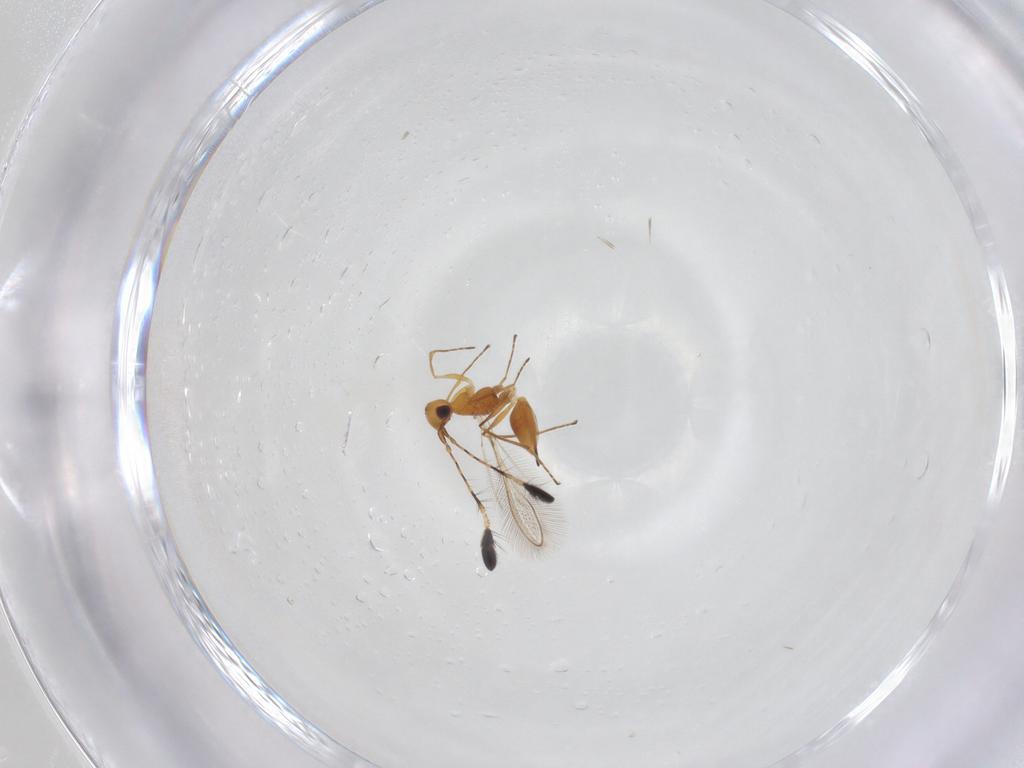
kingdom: Animalia
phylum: Arthropoda
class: Insecta
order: Hymenoptera
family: Diapriidae
